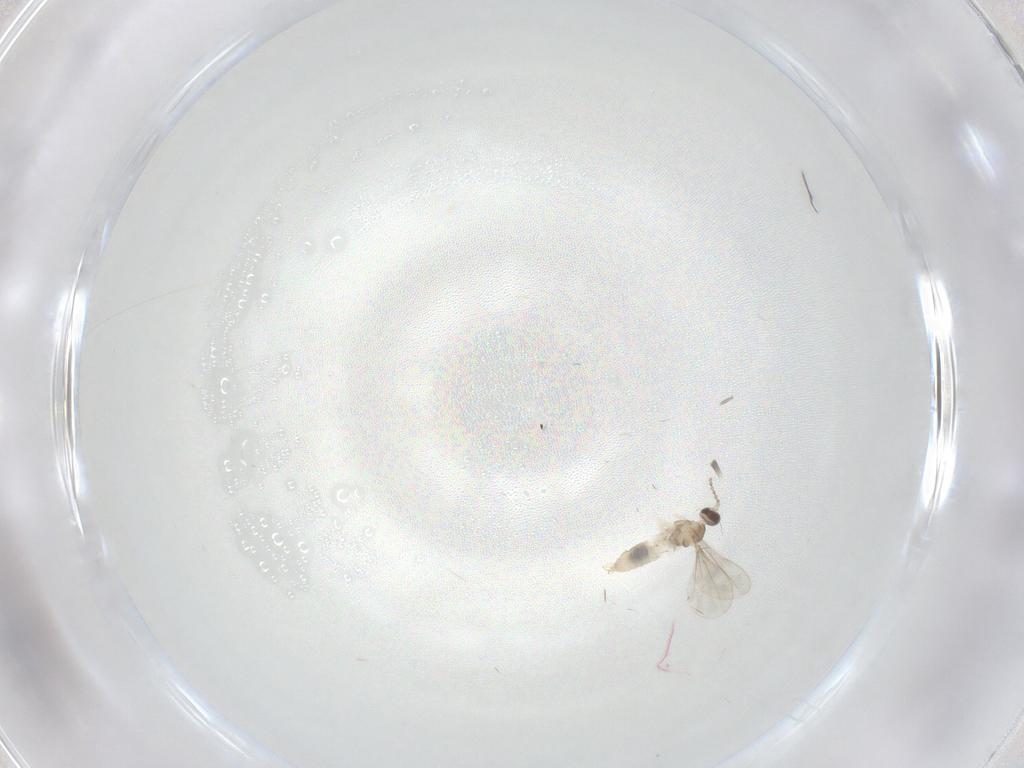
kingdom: Animalia
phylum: Arthropoda
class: Insecta
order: Diptera
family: Cecidomyiidae
